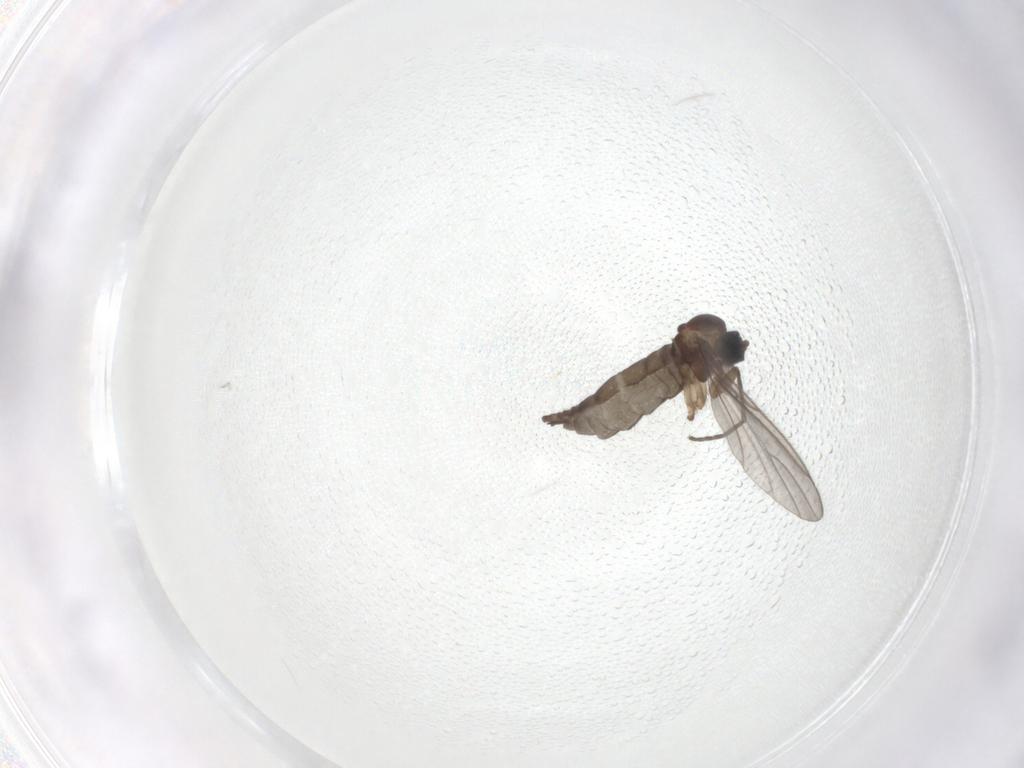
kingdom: Animalia
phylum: Arthropoda
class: Insecta
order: Diptera
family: Sciaridae
